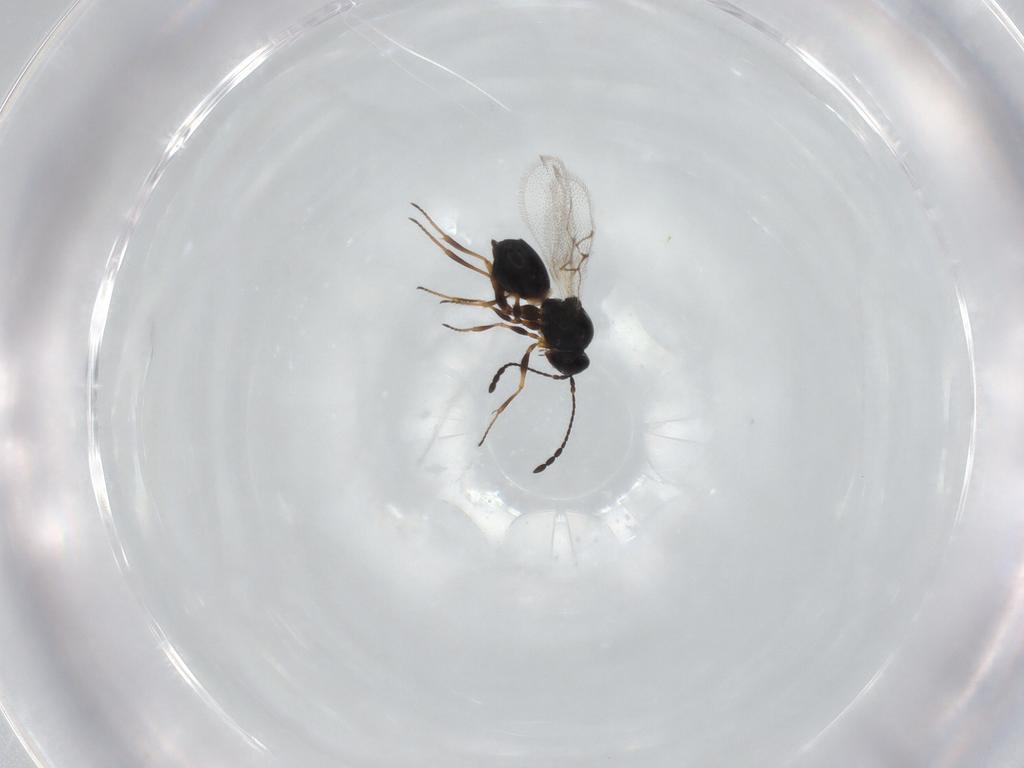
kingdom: Animalia
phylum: Arthropoda
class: Insecta
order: Hymenoptera
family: Figitidae
